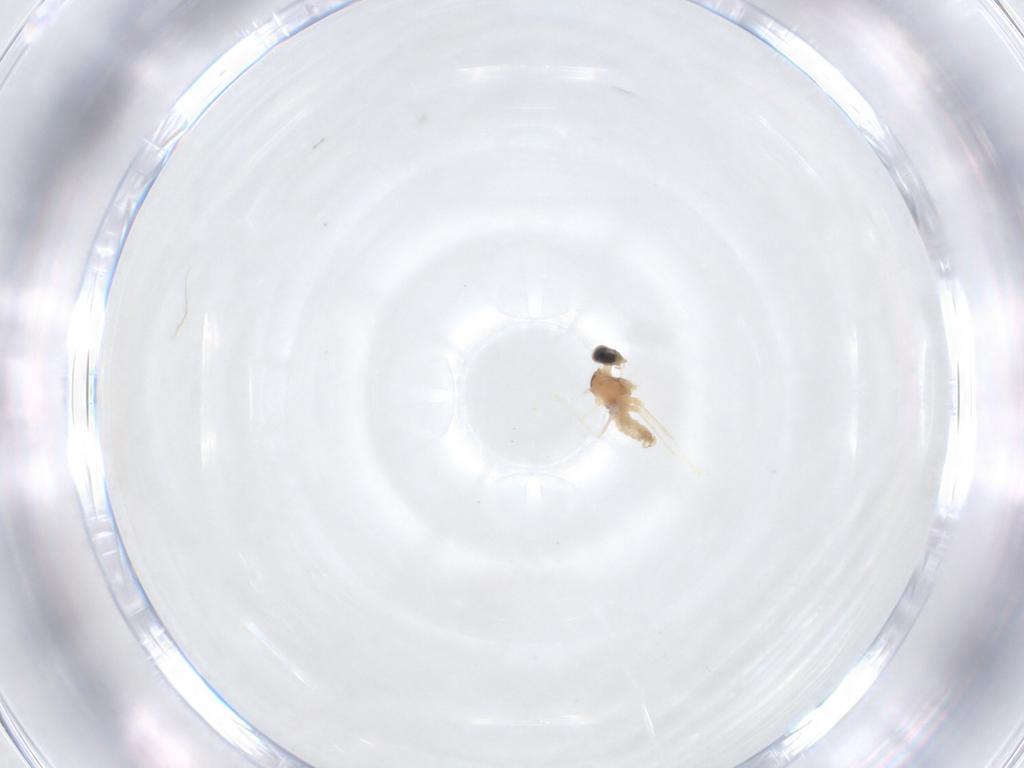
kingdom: Animalia
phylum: Arthropoda
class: Insecta
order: Diptera
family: Cecidomyiidae
